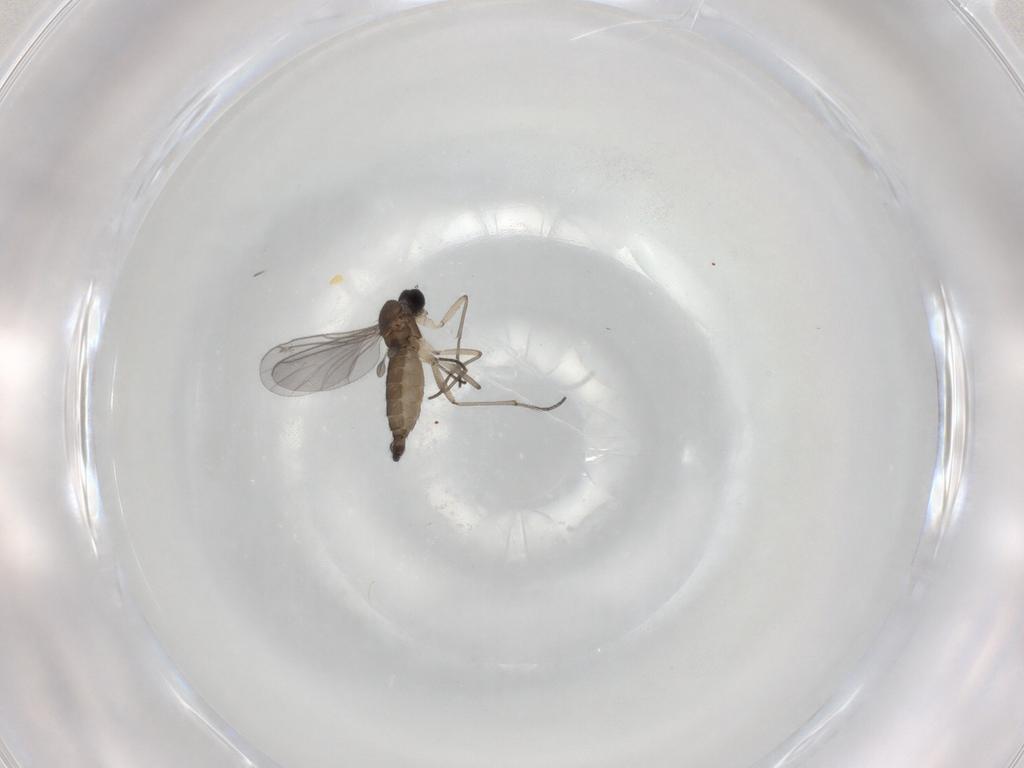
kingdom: Animalia
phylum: Arthropoda
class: Insecta
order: Diptera
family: Sciaridae
